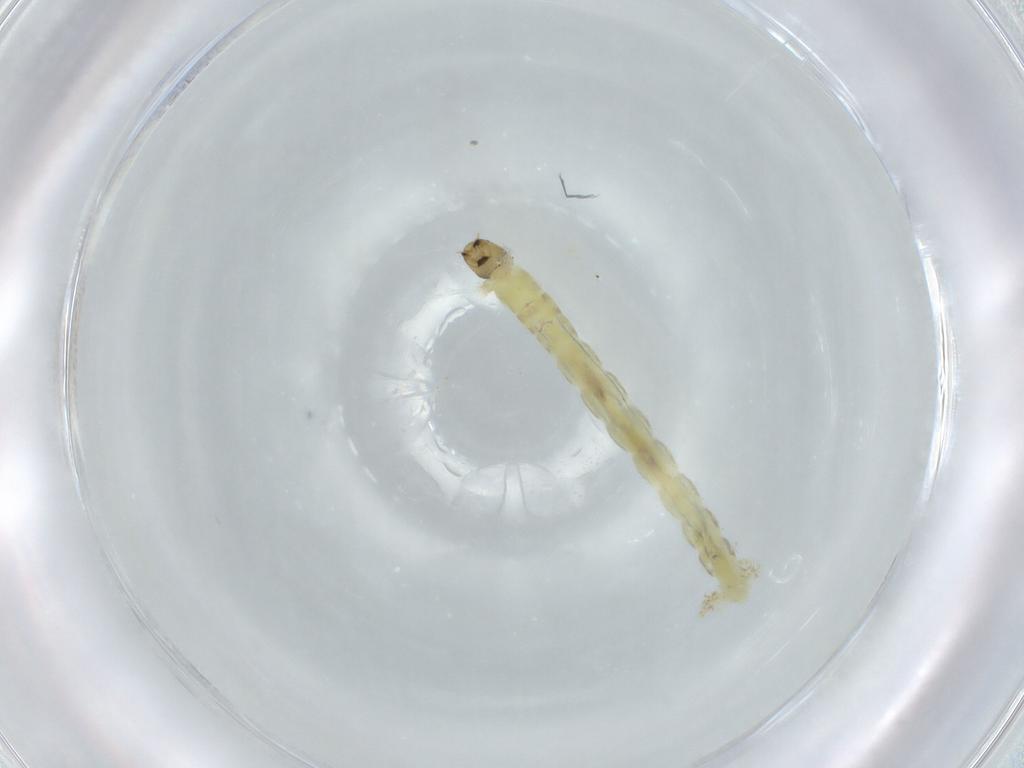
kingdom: Animalia
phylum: Arthropoda
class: Insecta
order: Diptera
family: Chironomidae
